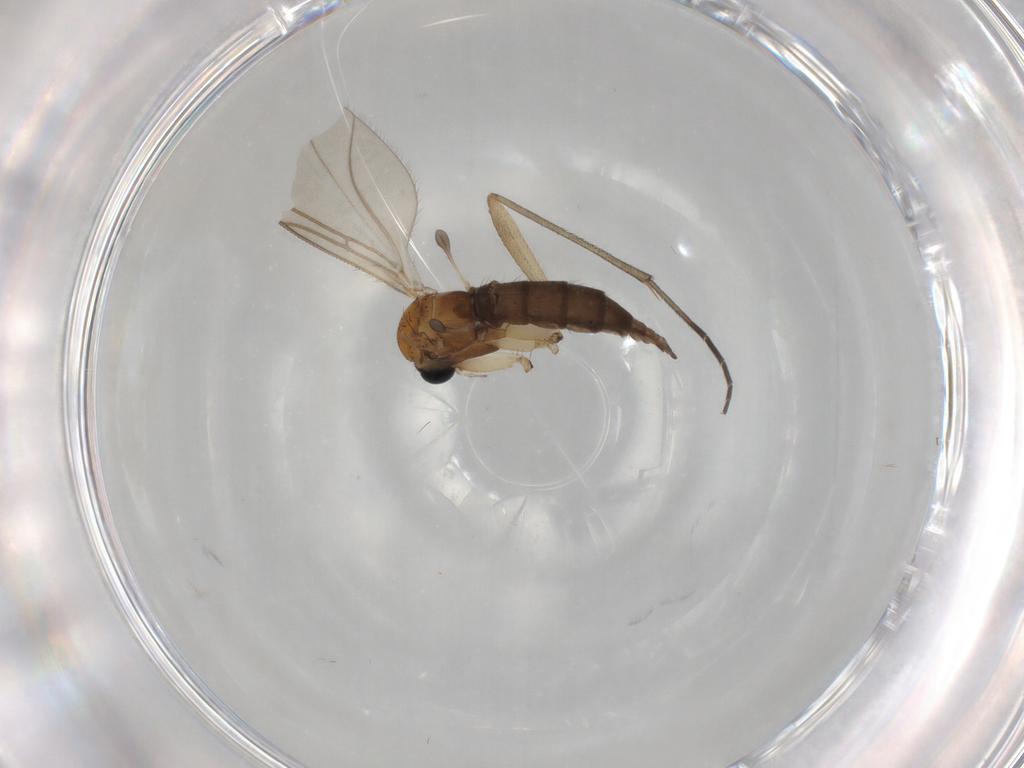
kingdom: Animalia
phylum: Arthropoda
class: Insecta
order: Diptera
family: Sciaridae
